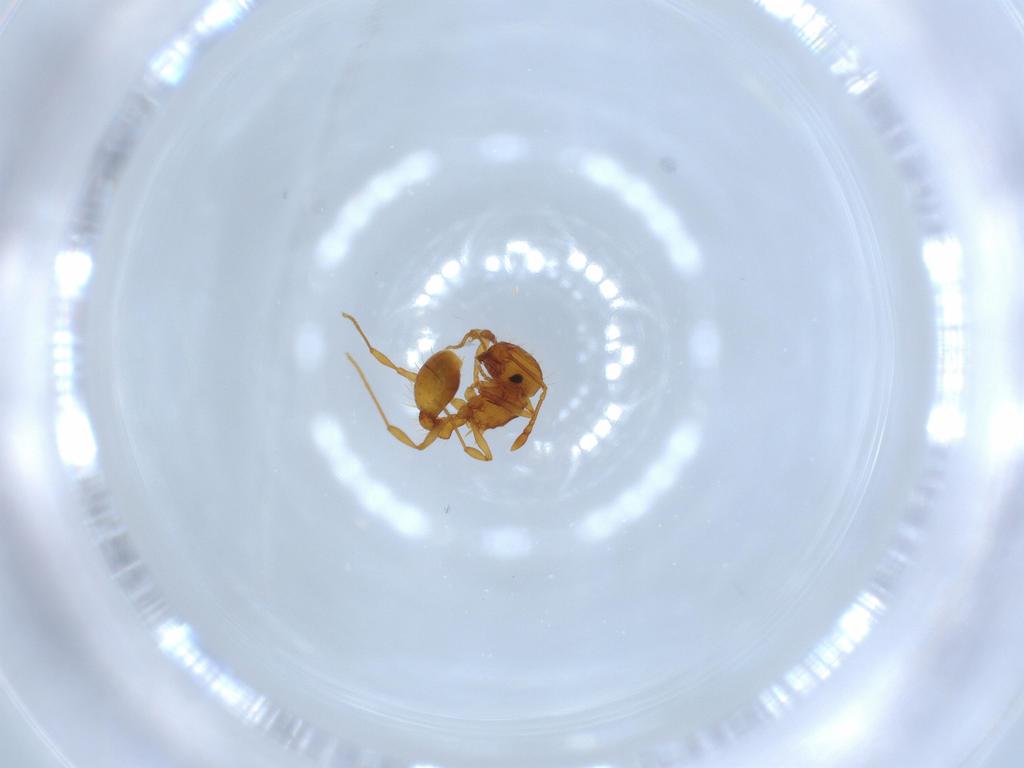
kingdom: Animalia
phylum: Arthropoda
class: Insecta
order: Hymenoptera
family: Formicidae
